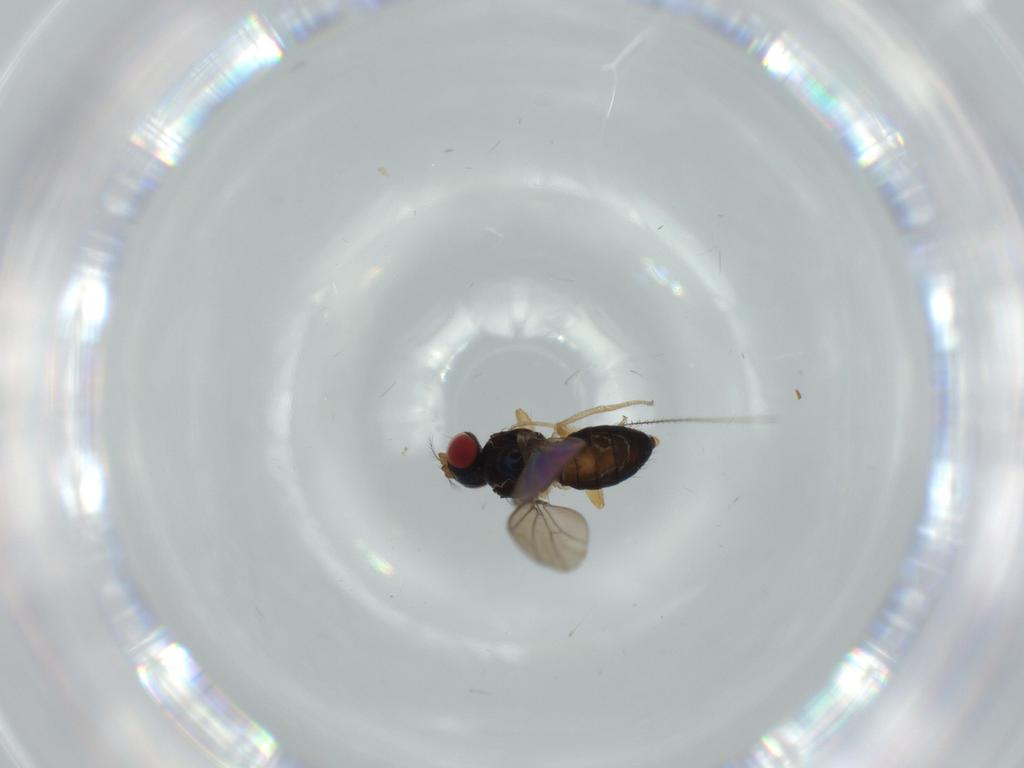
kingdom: Animalia
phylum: Arthropoda
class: Insecta
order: Diptera
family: Drosophilidae
